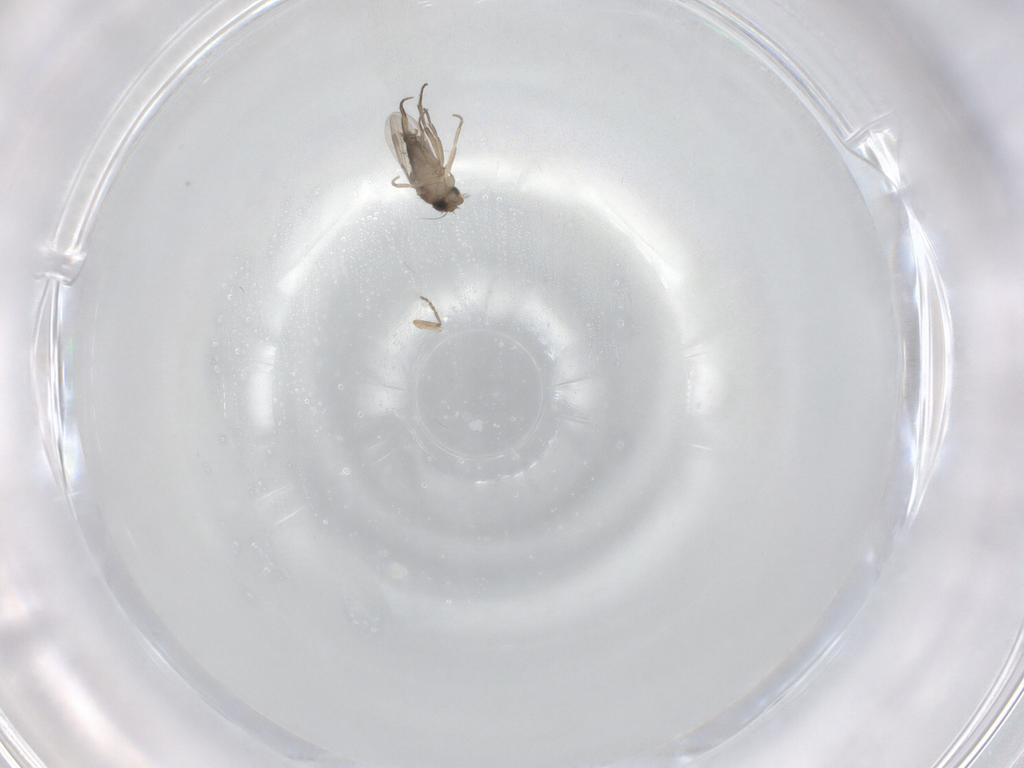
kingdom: Animalia
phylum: Arthropoda
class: Insecta
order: Diptera
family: Phoridae
